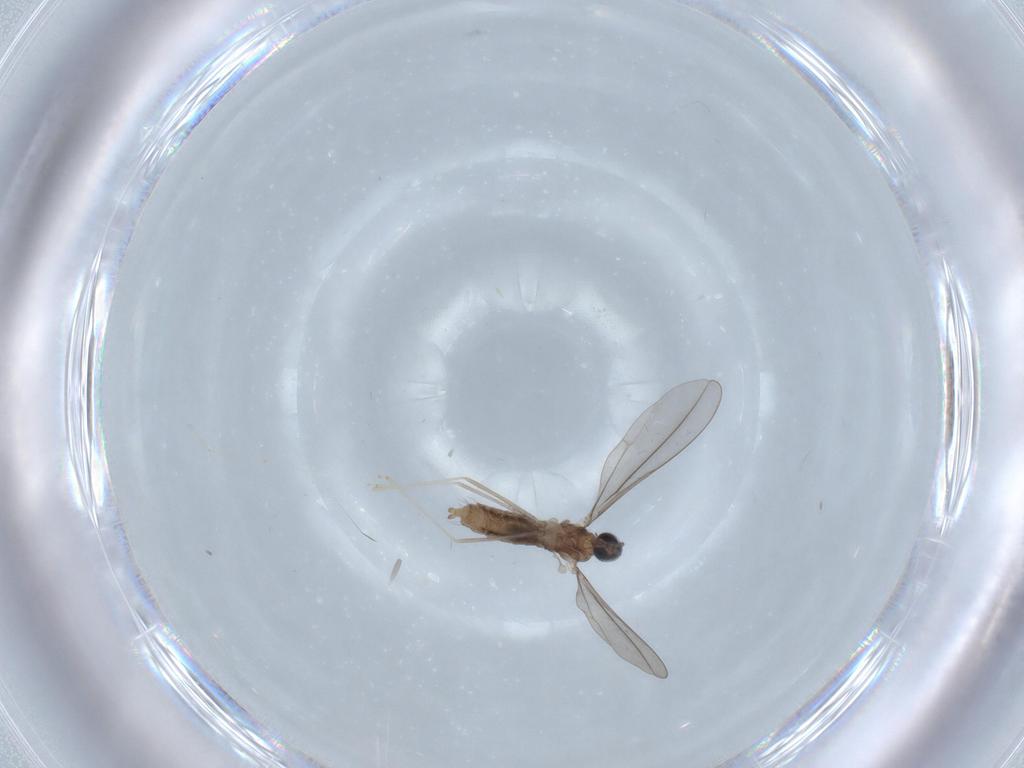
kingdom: Animalia
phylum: Arthropoda
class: Insecta
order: Diptera
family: Cecidomyiidae
